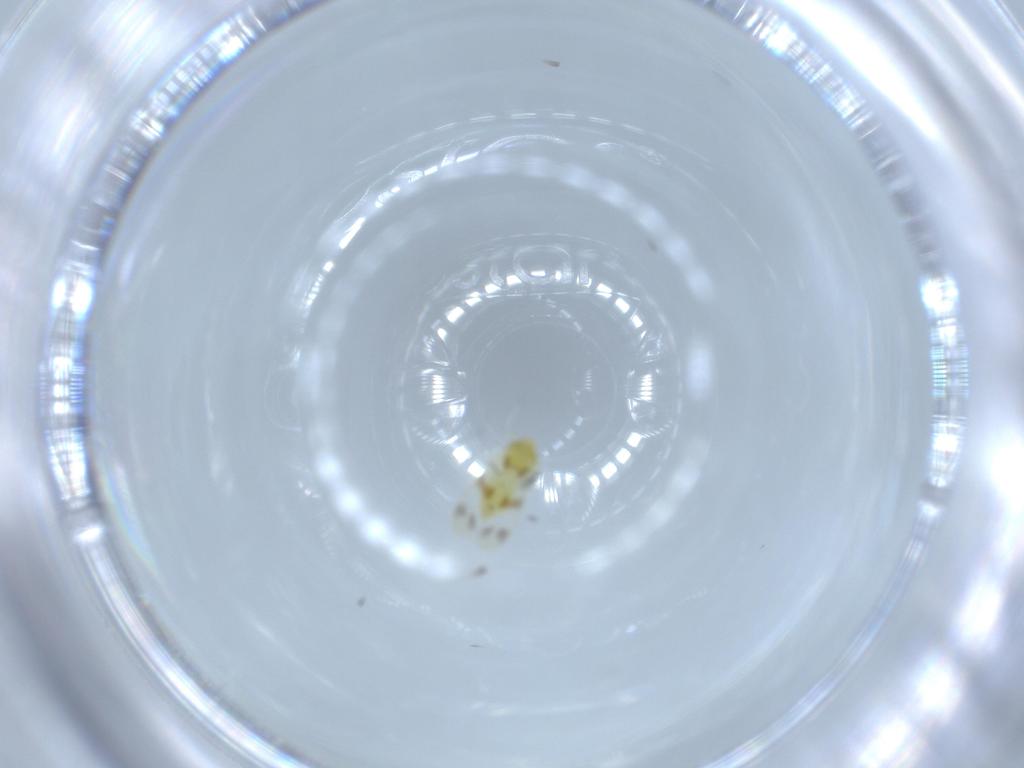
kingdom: Animalia
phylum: Arthropoda
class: Insecta
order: Hemiptera
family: Aleyrodidae
